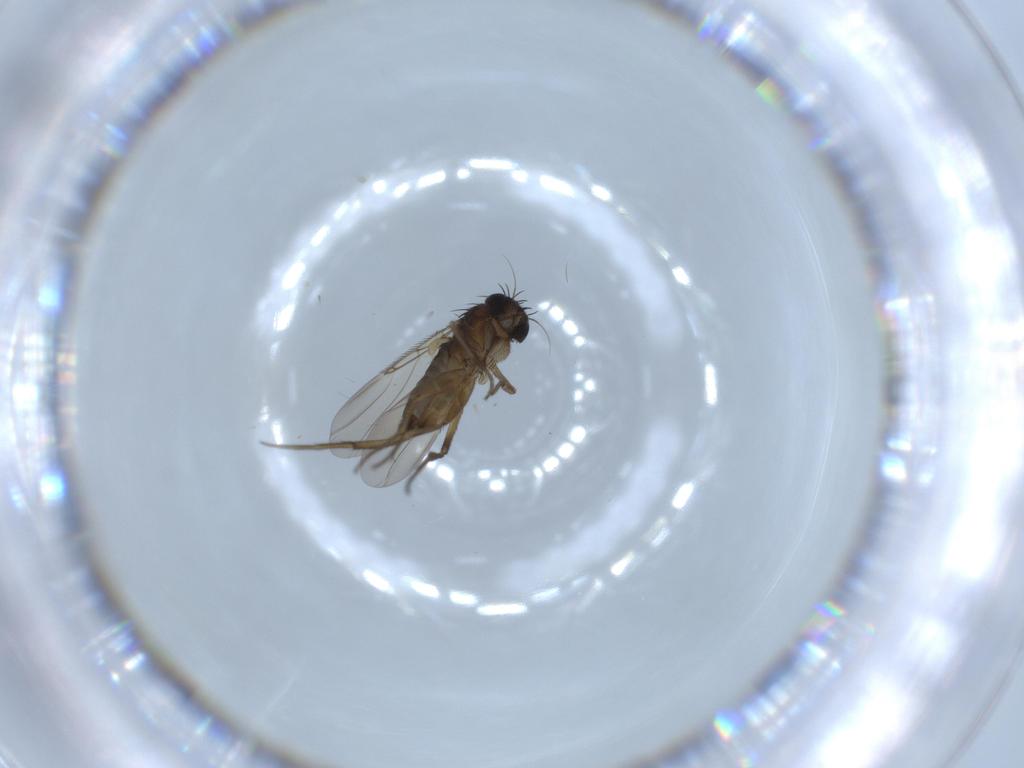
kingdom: Animalia
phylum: Arthropoda
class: Insecta
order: Diptera
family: Phoridae
